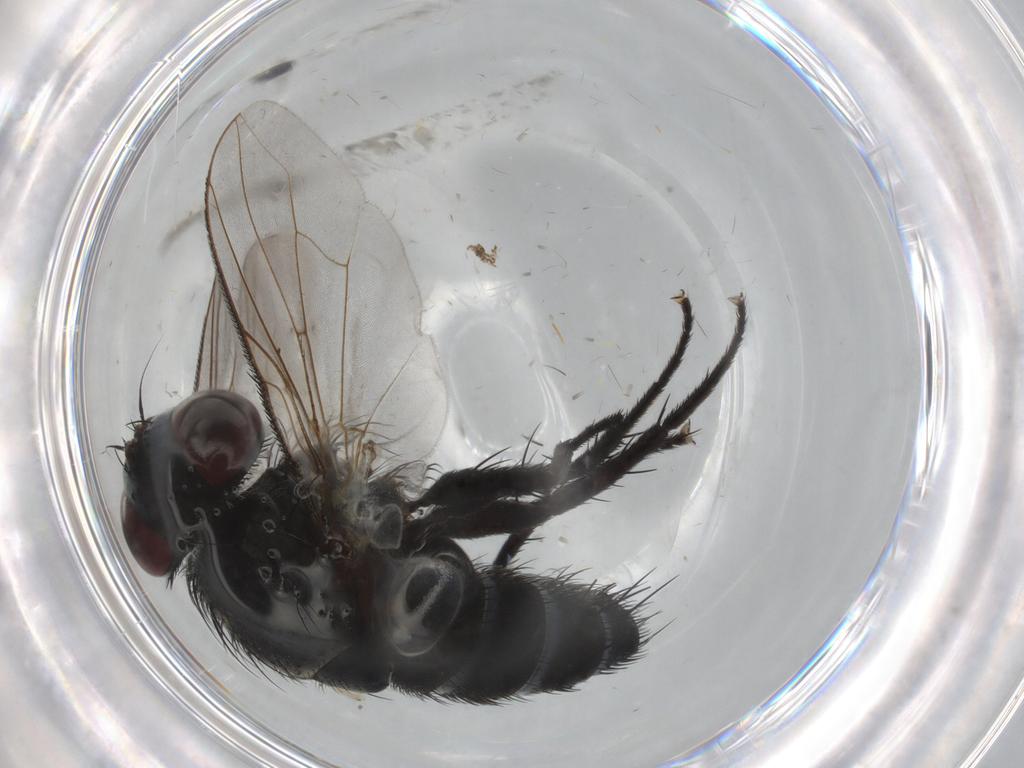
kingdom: Animalia
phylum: Arthropoda
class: Insecta
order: Diptera
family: Tachinidae
